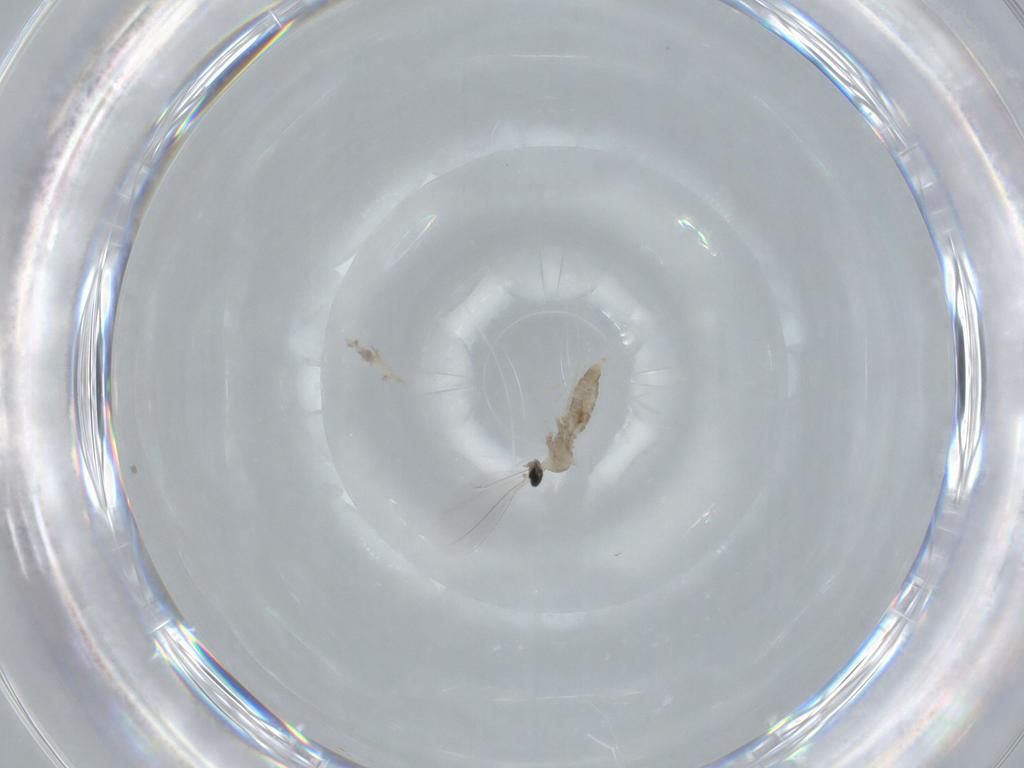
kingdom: Animalia
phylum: Arthropoda
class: Insecta
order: Diptera
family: Cecidomyiidae
